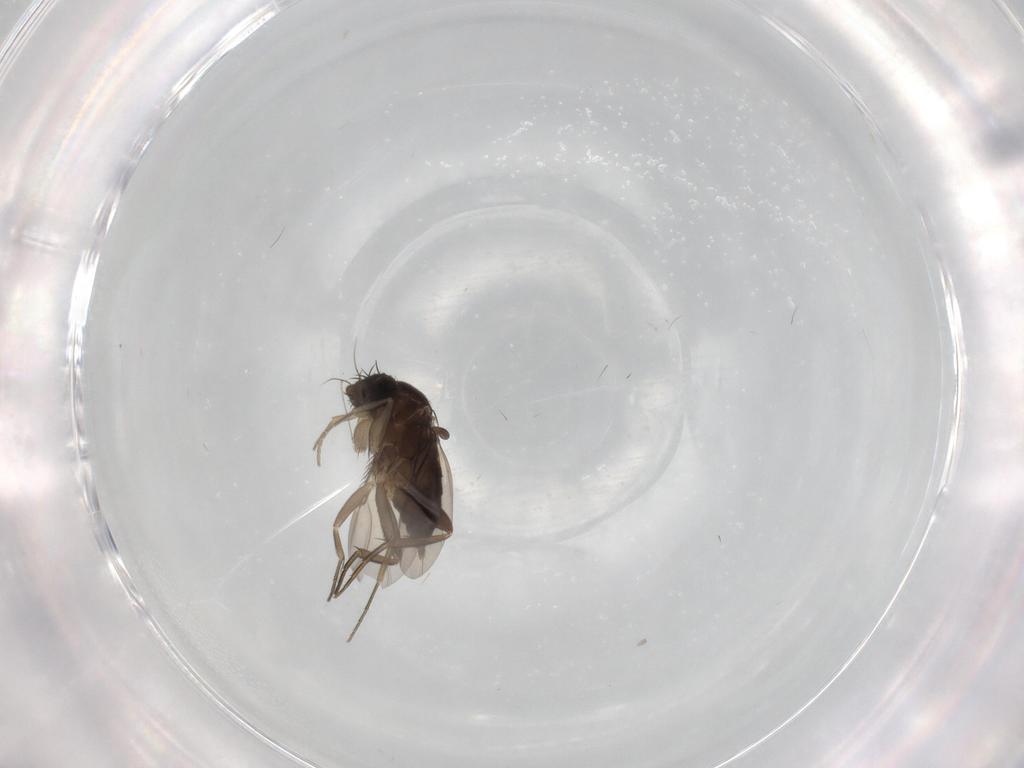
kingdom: Animalia
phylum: Arthropoda
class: Insecta
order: Diptera
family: Phoridae
